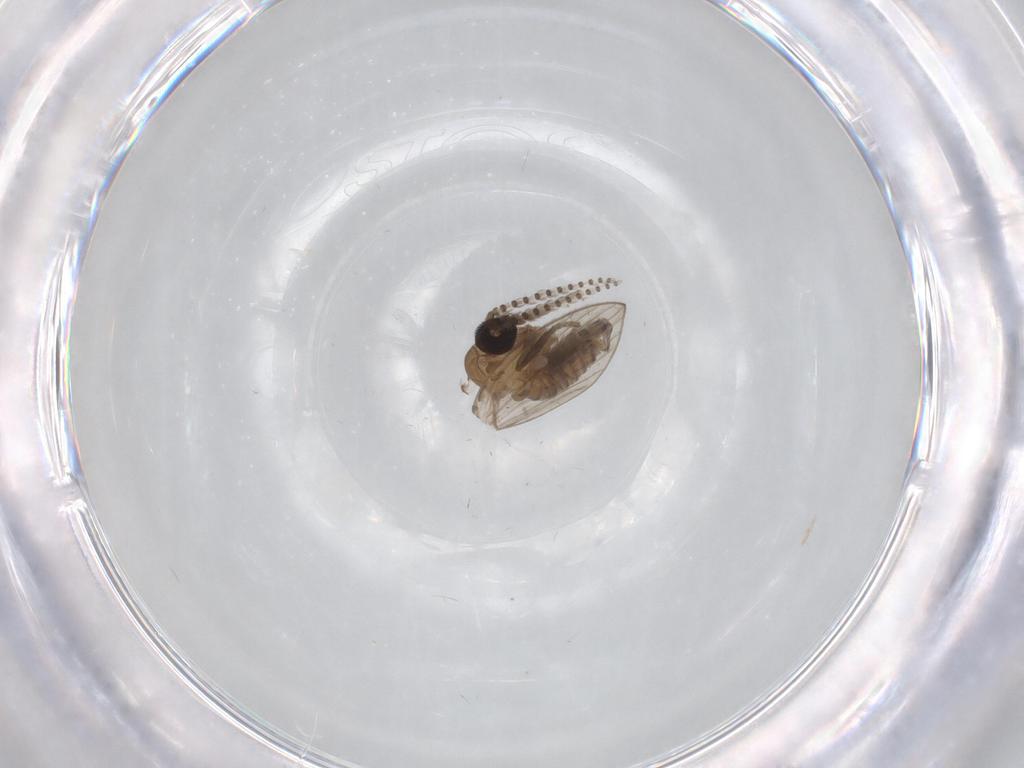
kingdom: Animalia
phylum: Arthropoda
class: Insecta
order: Diptera
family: Psychodidae
